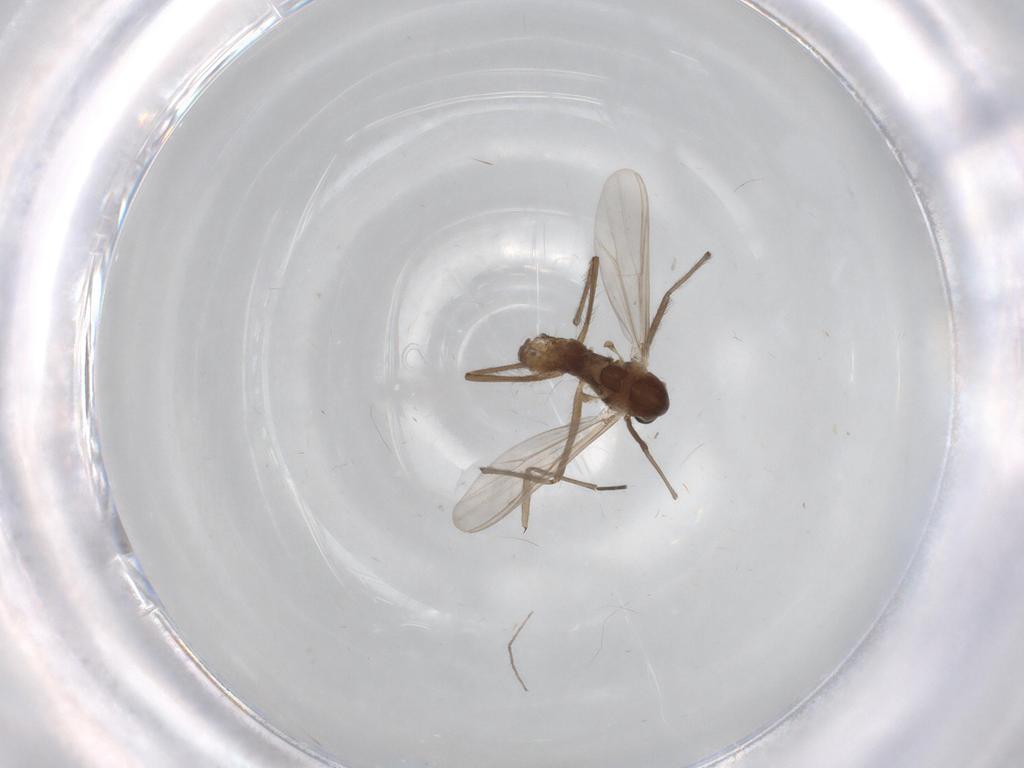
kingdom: Animalia
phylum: Arthropoda
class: Insecta
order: Diptera
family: Chironomidae
